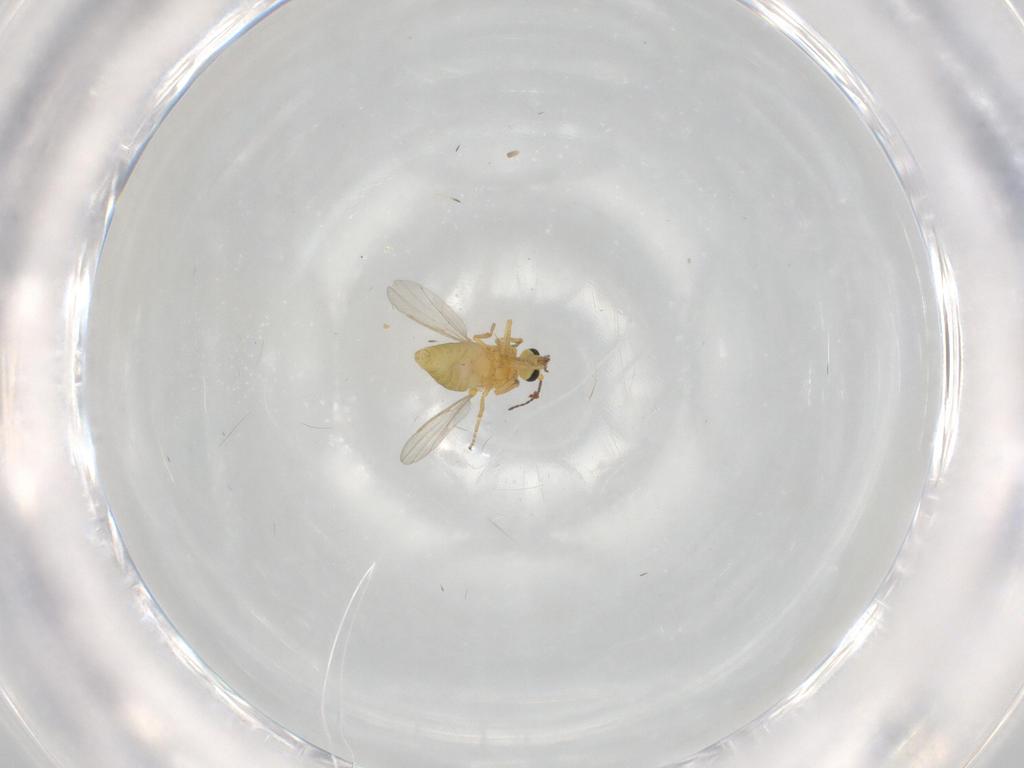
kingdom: Animalia
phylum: Arthropoda
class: Insecta
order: Diptera
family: Ceratopogonidae
